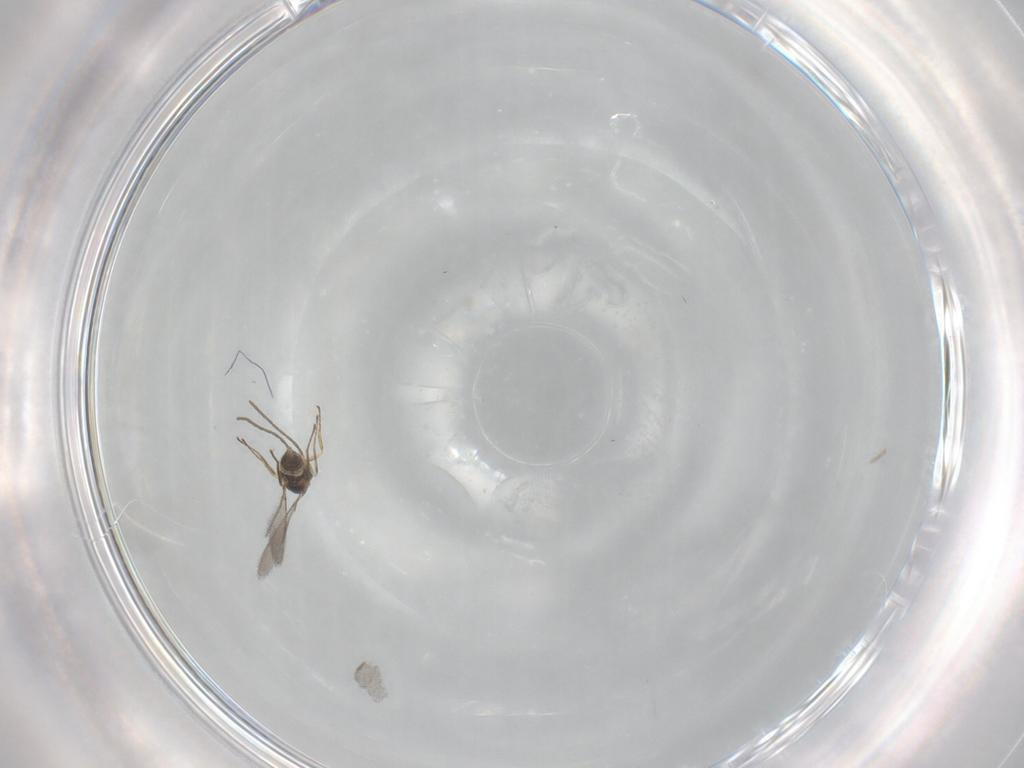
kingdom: Animalia
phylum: Arthropoda
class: Insecta
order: Hymenoptera
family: Mymaridae
